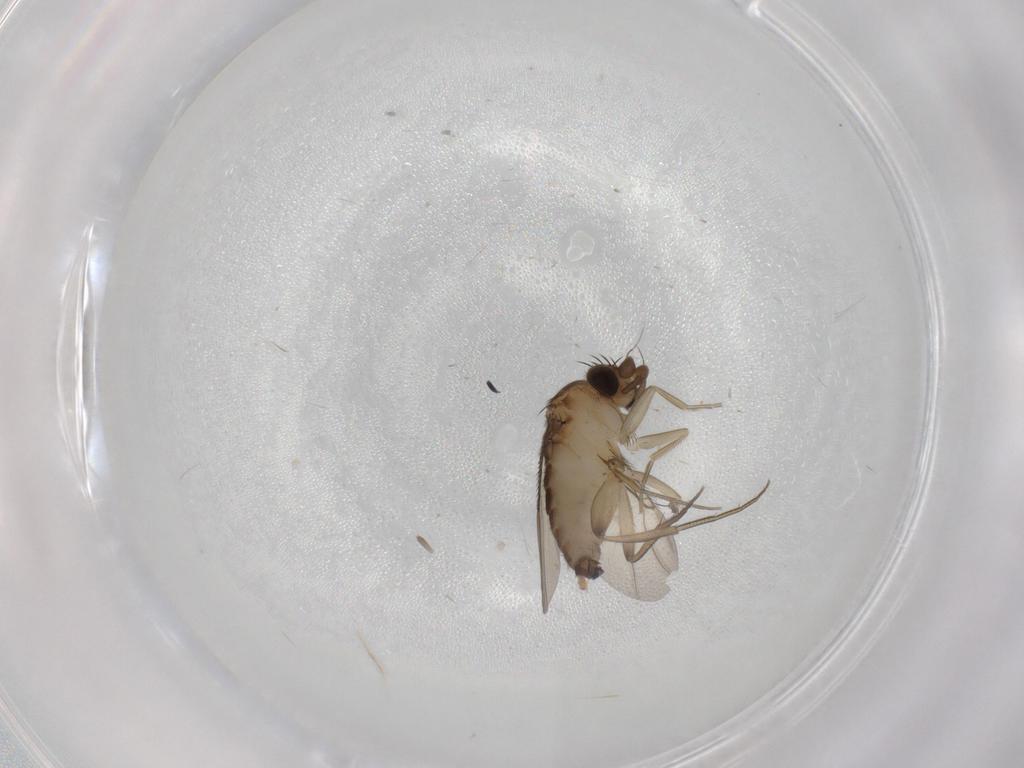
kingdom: Animalia
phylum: Arthropoda
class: Insecta
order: Diptera
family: Phoridae
